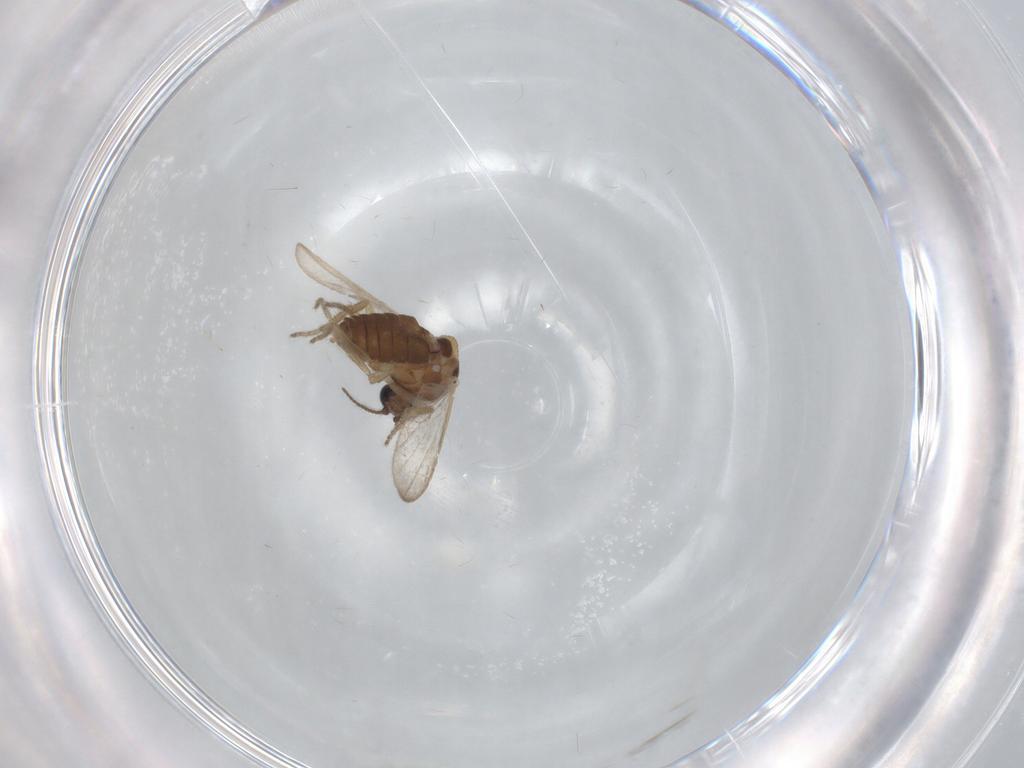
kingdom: Animalia
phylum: Arthropoda
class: Insecta
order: Diptera
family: Ceratopogonidae
